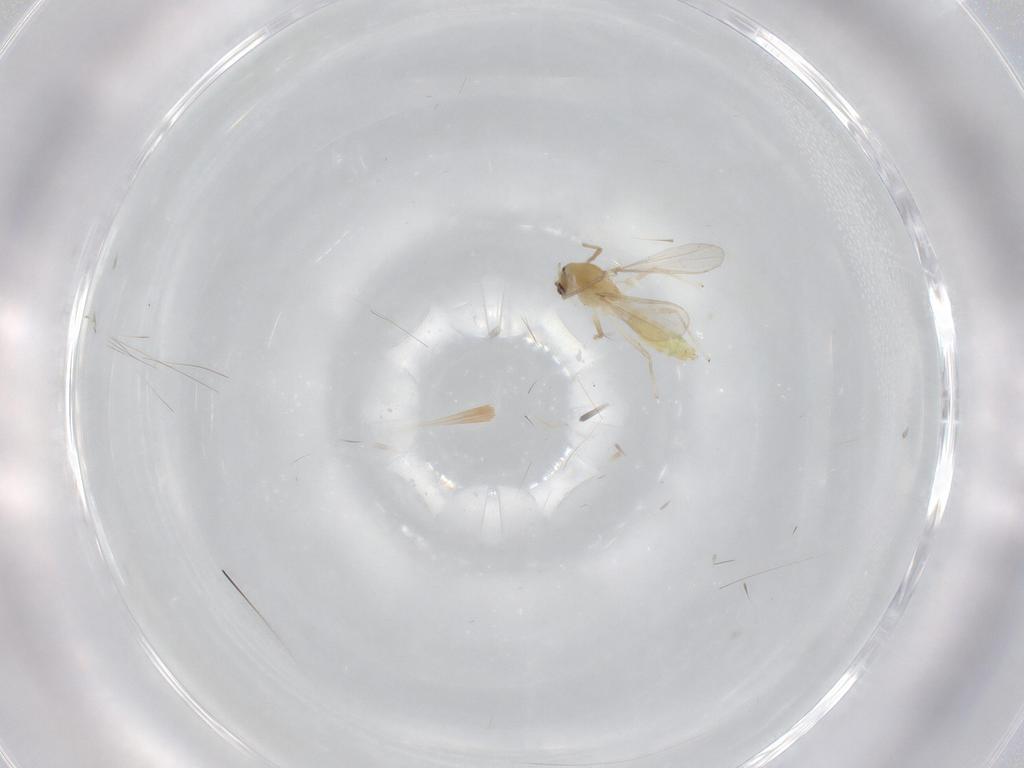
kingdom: Animalia
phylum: Arthropoda
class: Insecta
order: Diptera
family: Chironomidae
